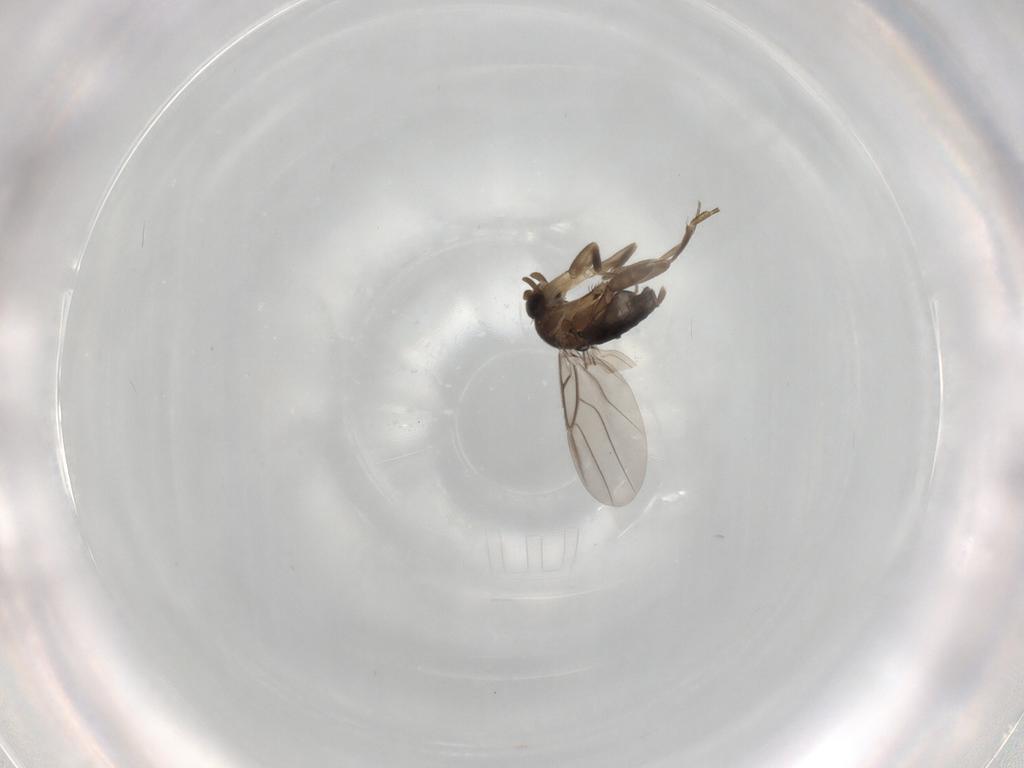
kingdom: Animalia
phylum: Arthropoda
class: Insecta
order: Diptera
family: Phoridae
